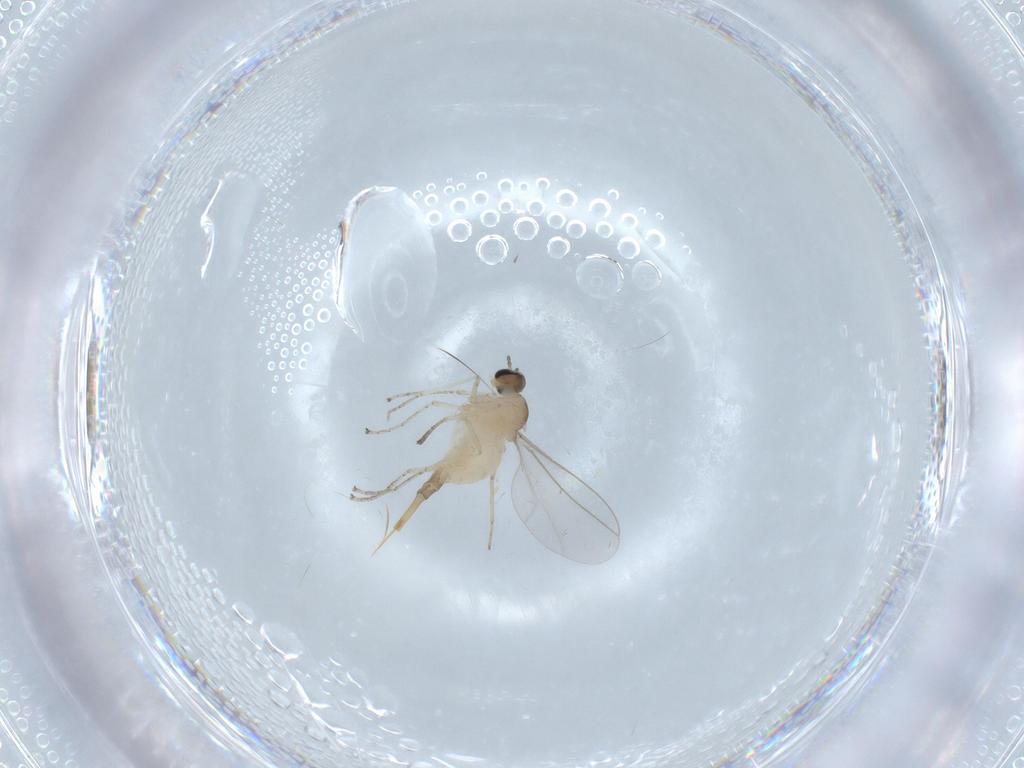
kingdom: Animalia
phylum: Arthropoda
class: Insecta
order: Diptera
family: Cecidomyiidae
